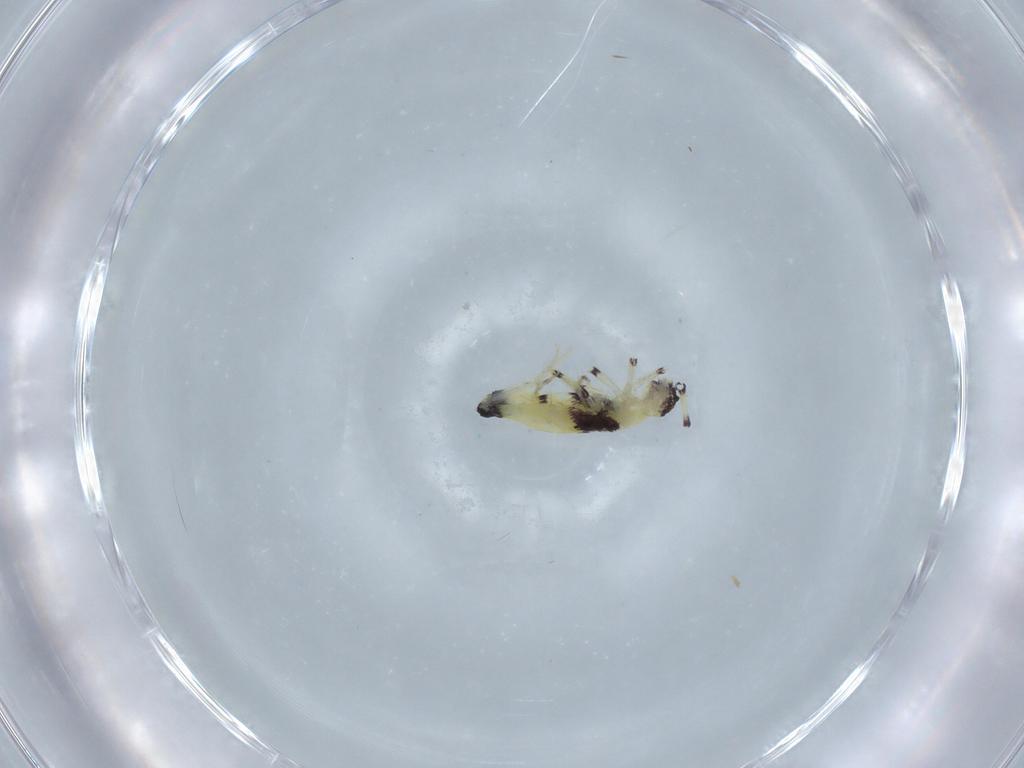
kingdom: Animalia
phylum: Arthropoda
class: Collembola
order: Entomobryomorpha
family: Paronellidae
